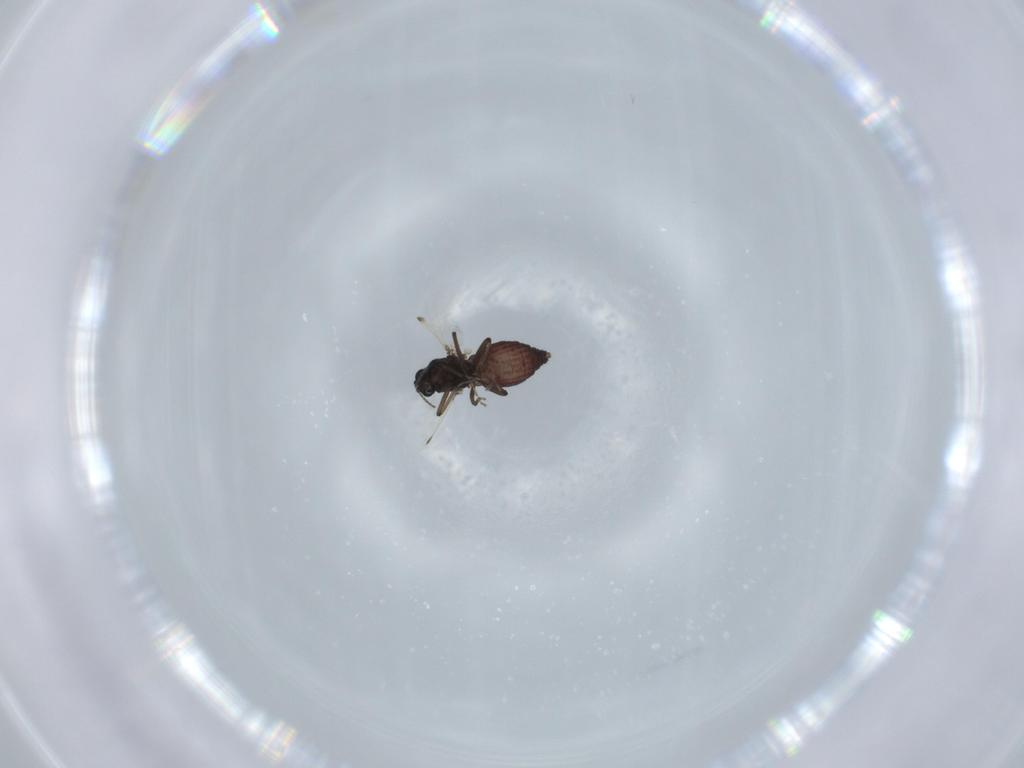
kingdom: Animalia
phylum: Arthropoda
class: Insecta
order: Diptera
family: Ceratopogonidae
